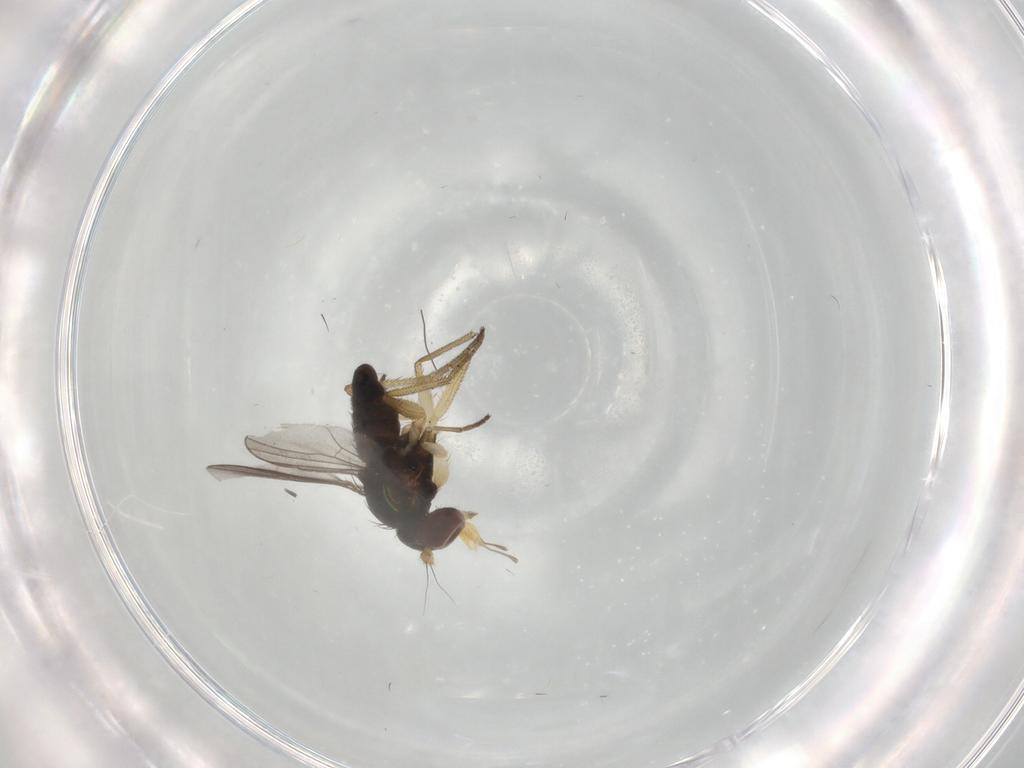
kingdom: Animalia
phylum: Arthropoda
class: Insecta
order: Diptera
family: Dolichopodidae
